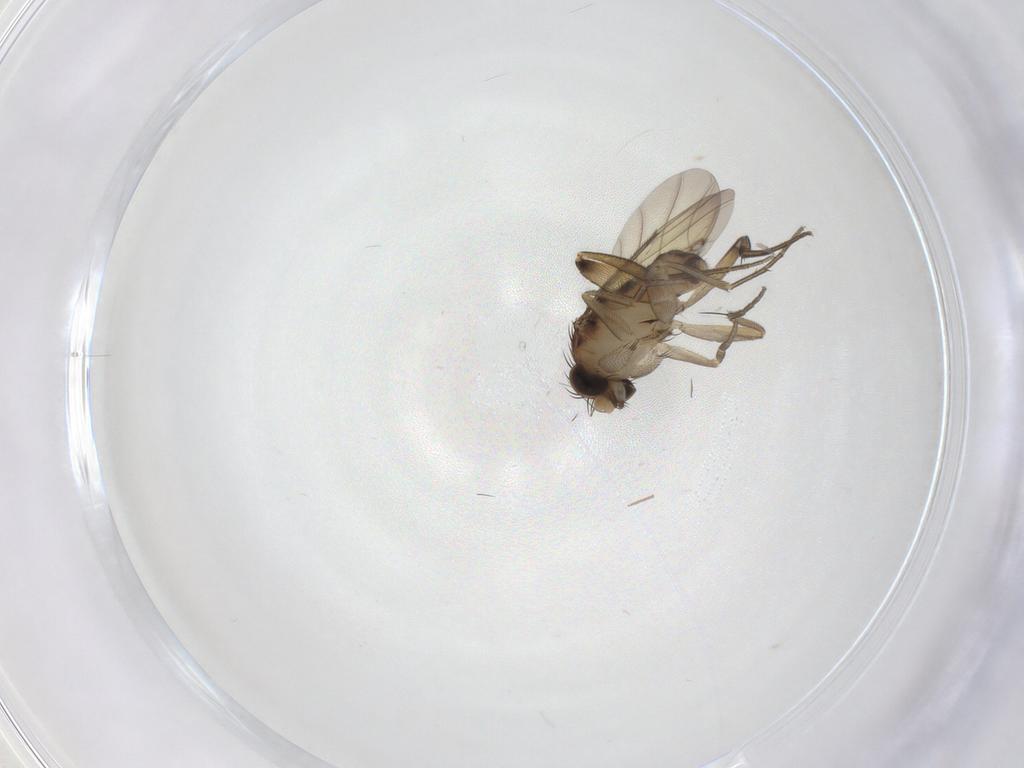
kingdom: Animalia
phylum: Arthropoda
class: Insecta
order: Diptera
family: Phoridae
